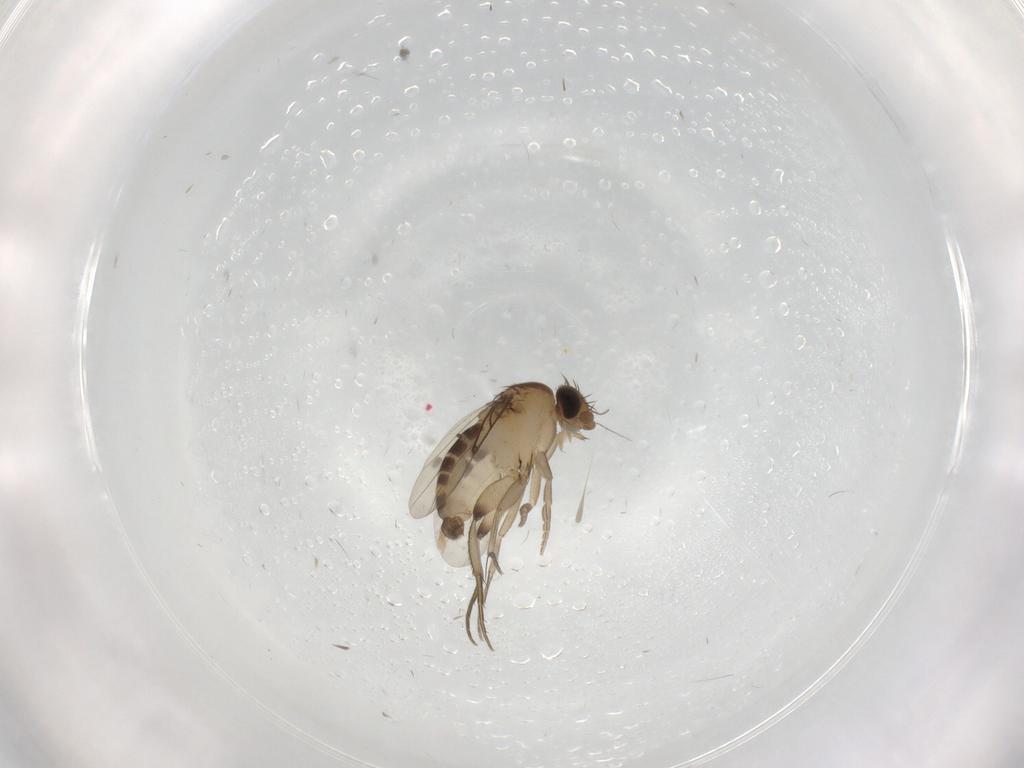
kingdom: Animalia
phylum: Arthropoda
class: Insecta
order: Diptera
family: Phoridae
